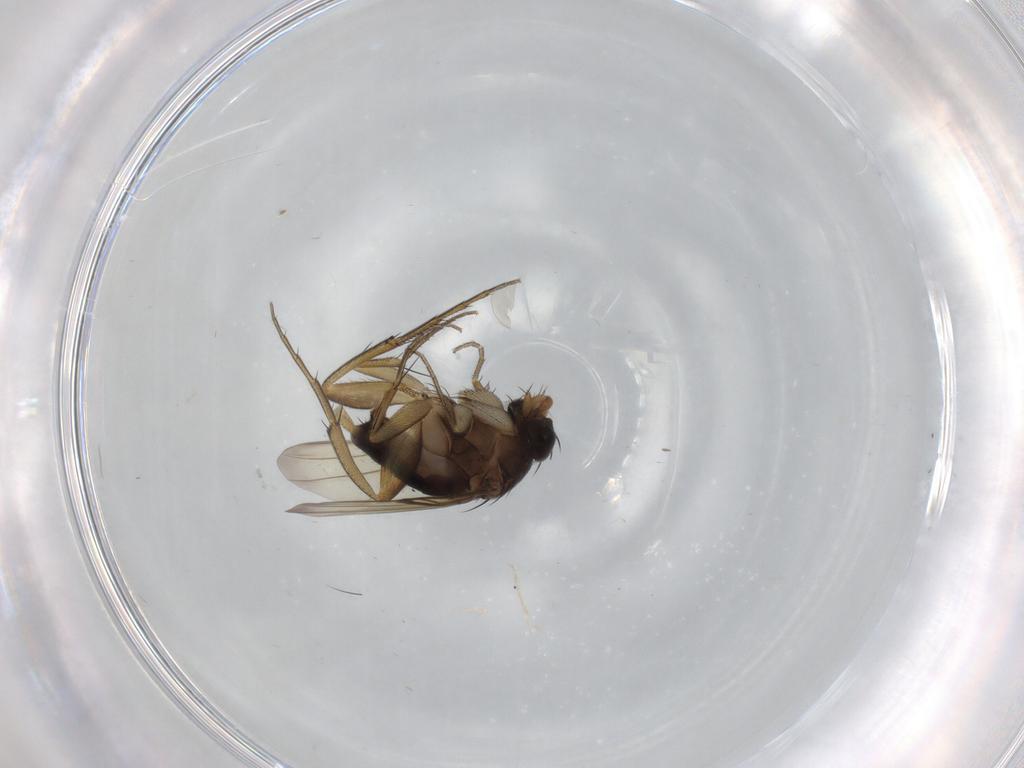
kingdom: Animalia
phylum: Arthropoda
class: Insecta
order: Diptera
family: Phoridae
